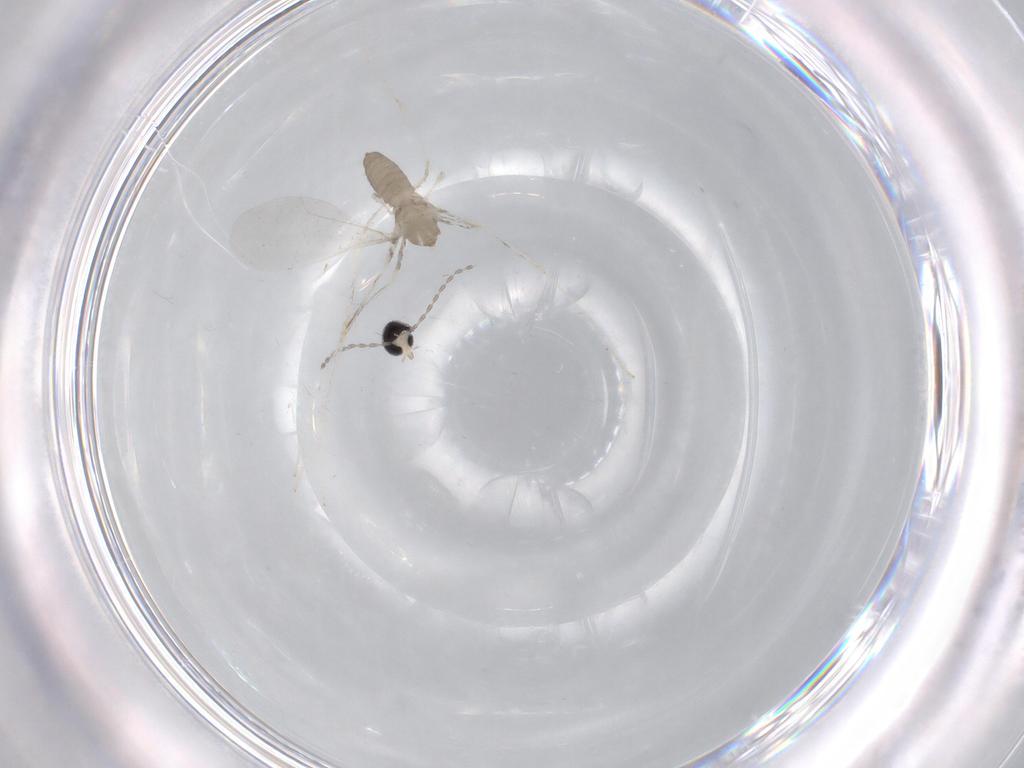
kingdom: Animalia
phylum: Arthropoda
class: Insecta
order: Diptera
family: Cecidomyiidae
